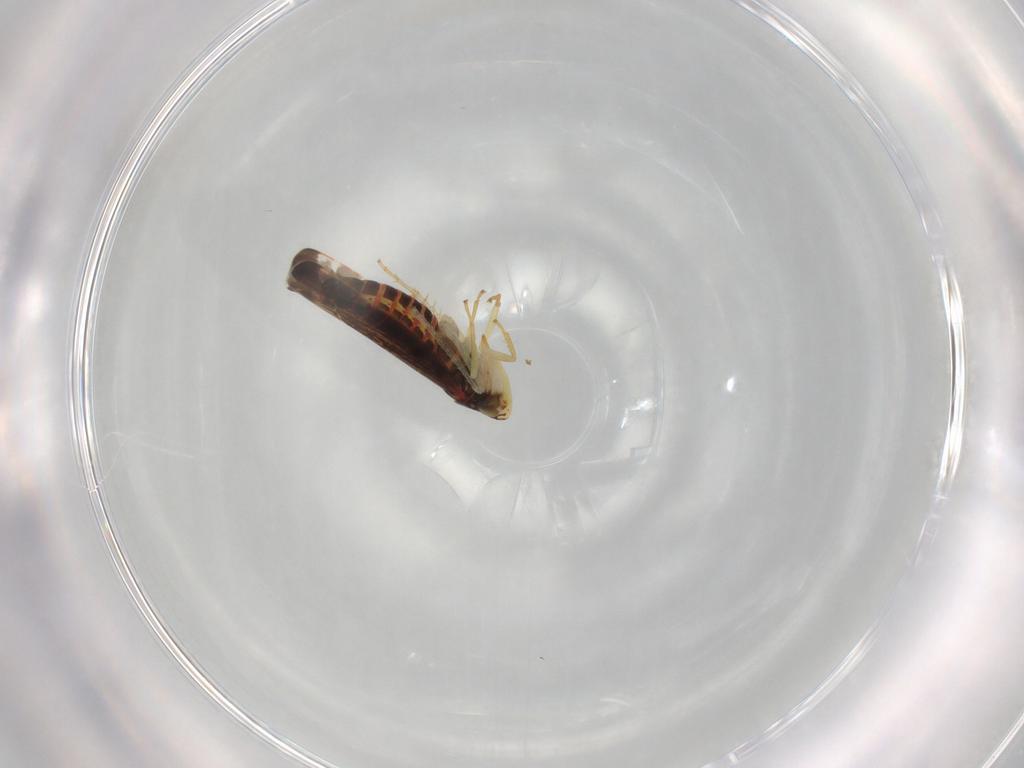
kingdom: Animalia
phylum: Arthropoda
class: Insecta
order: Hemiptera
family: Cicadellidae
